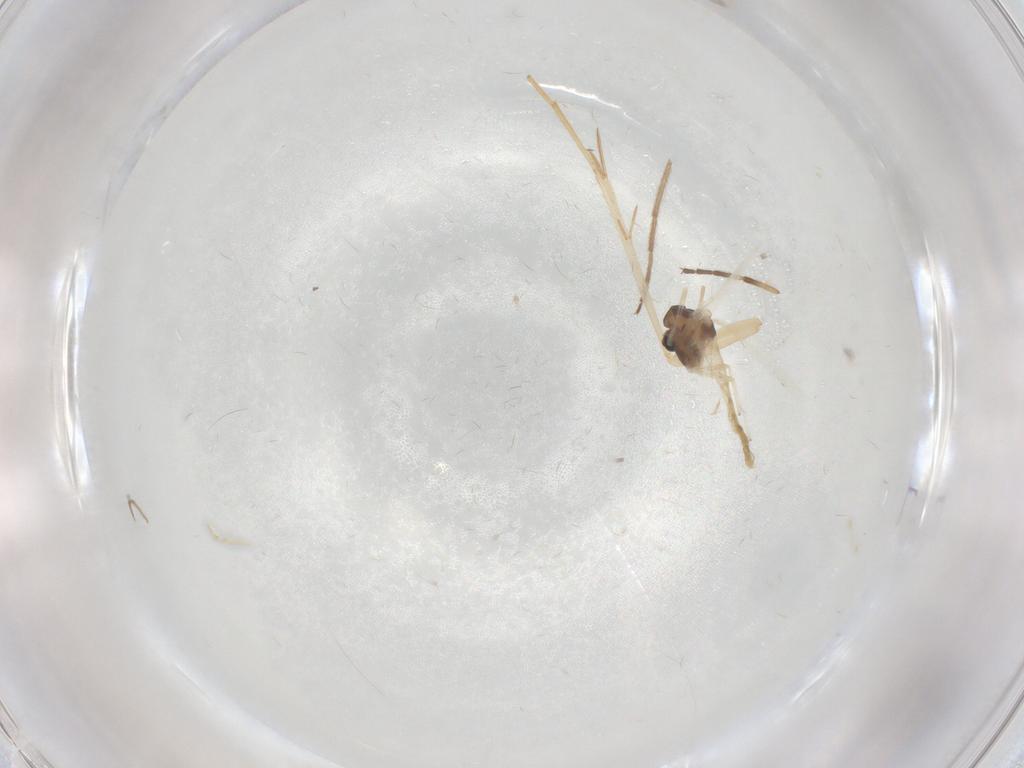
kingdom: Animalia
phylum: Arthropoda
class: Insecta
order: Diptera
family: Chironomidae
